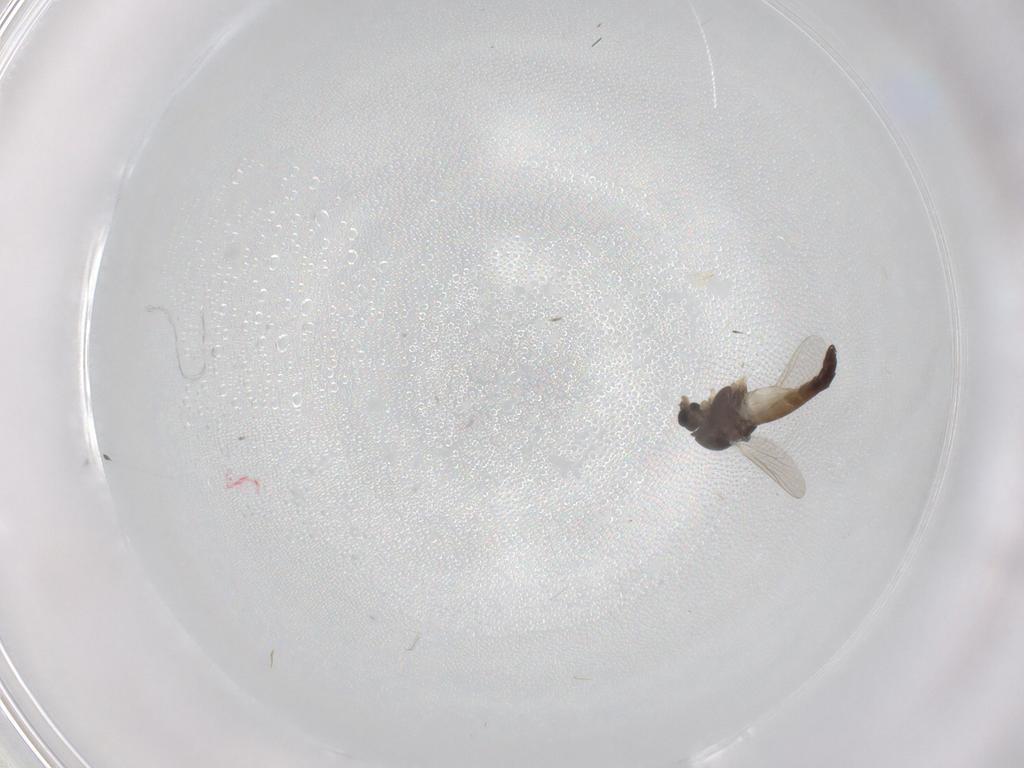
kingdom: Animalia
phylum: Arthropoda
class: Insecta
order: Diptera
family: Chironomidae
